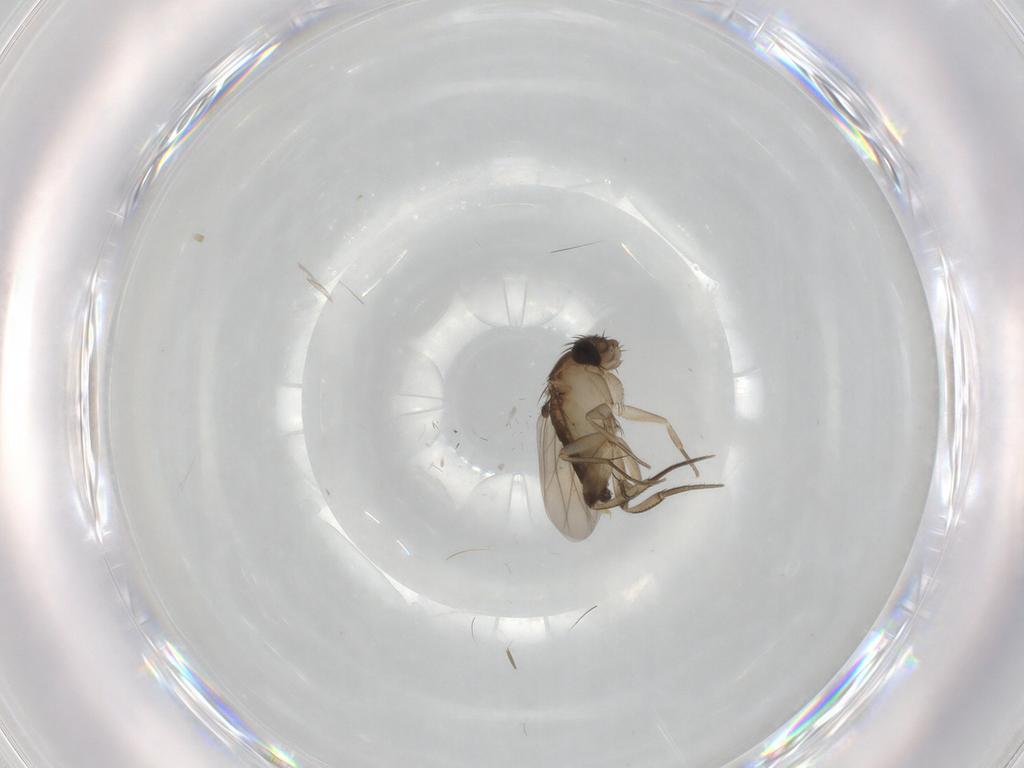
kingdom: Animalia
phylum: Arthropoda
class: Insecta
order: Diptera
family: Phoridae
